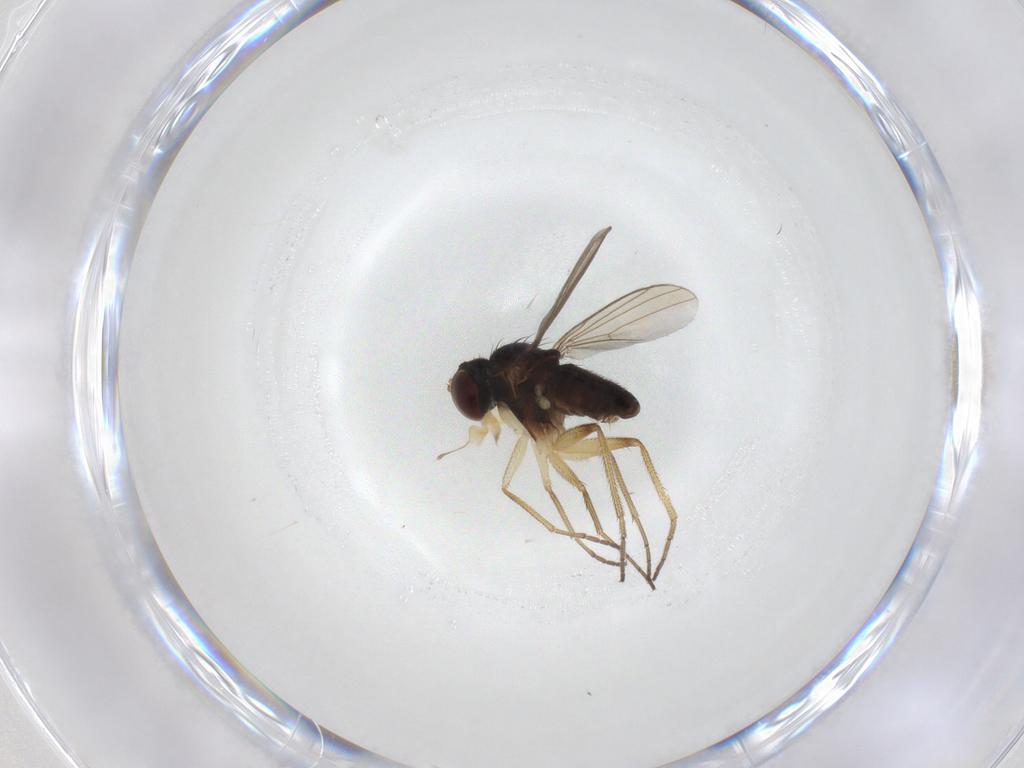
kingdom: Animalia
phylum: Arthropoda
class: Insecta
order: Diptera
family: Dolichopodidae
